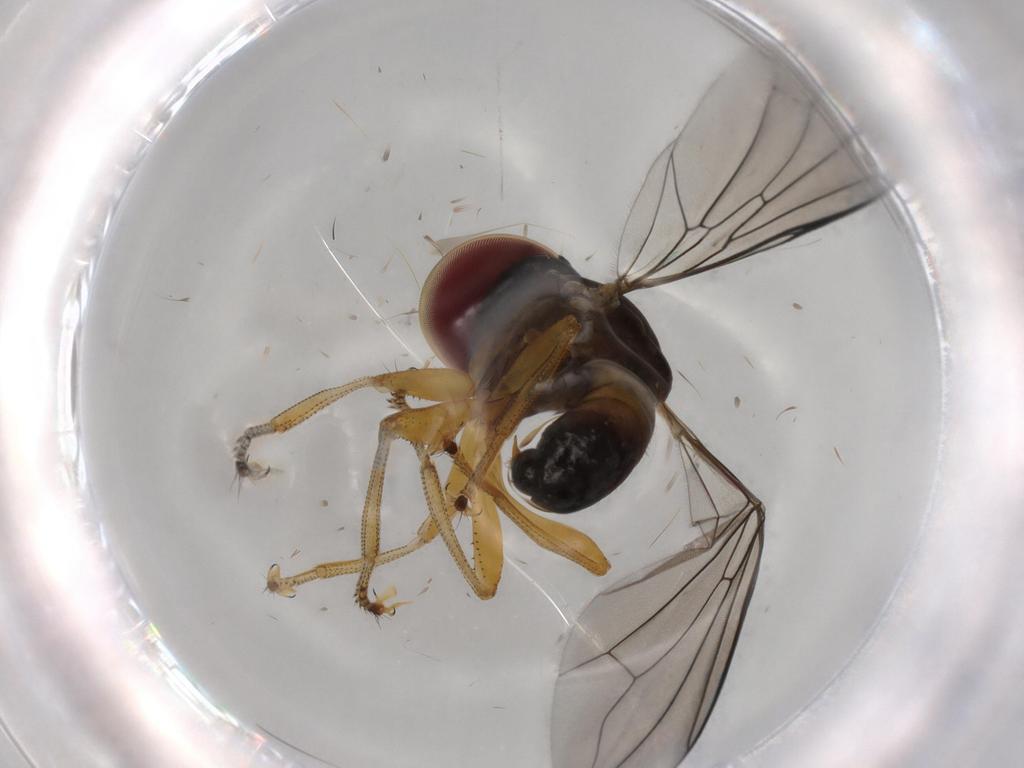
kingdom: Animalia
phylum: Arthropoda
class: Insecta
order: Diptera
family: Pipunculidae
